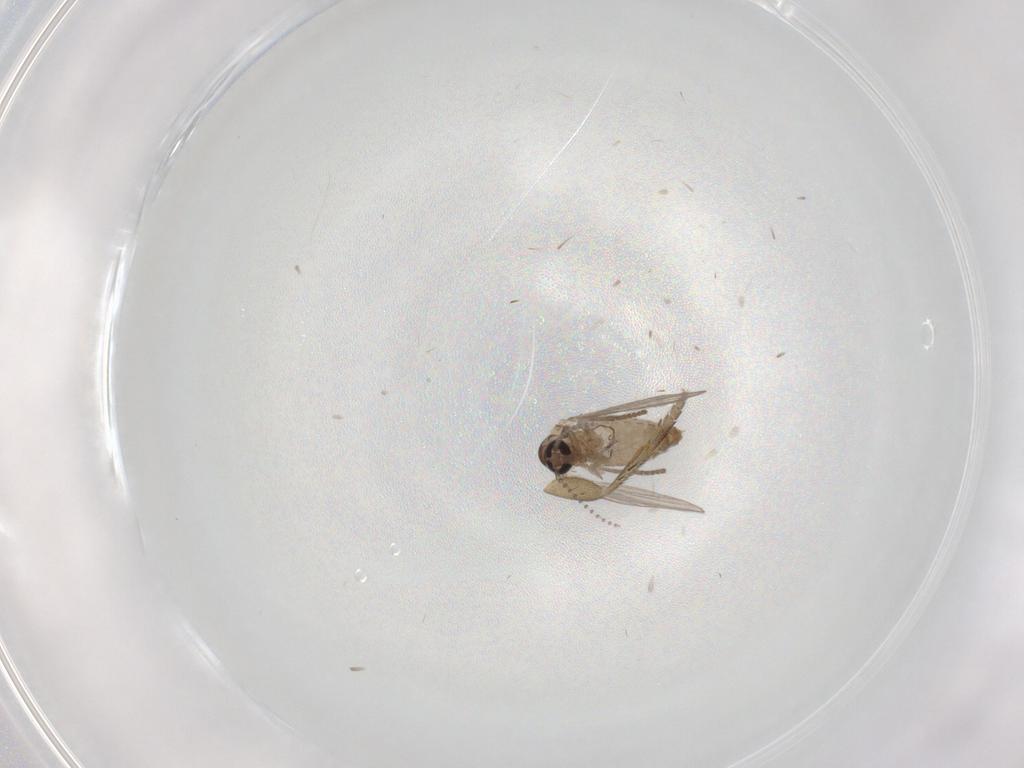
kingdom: Animalia
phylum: Arthropoda
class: Insecta
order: Diptera
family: Phoridae
